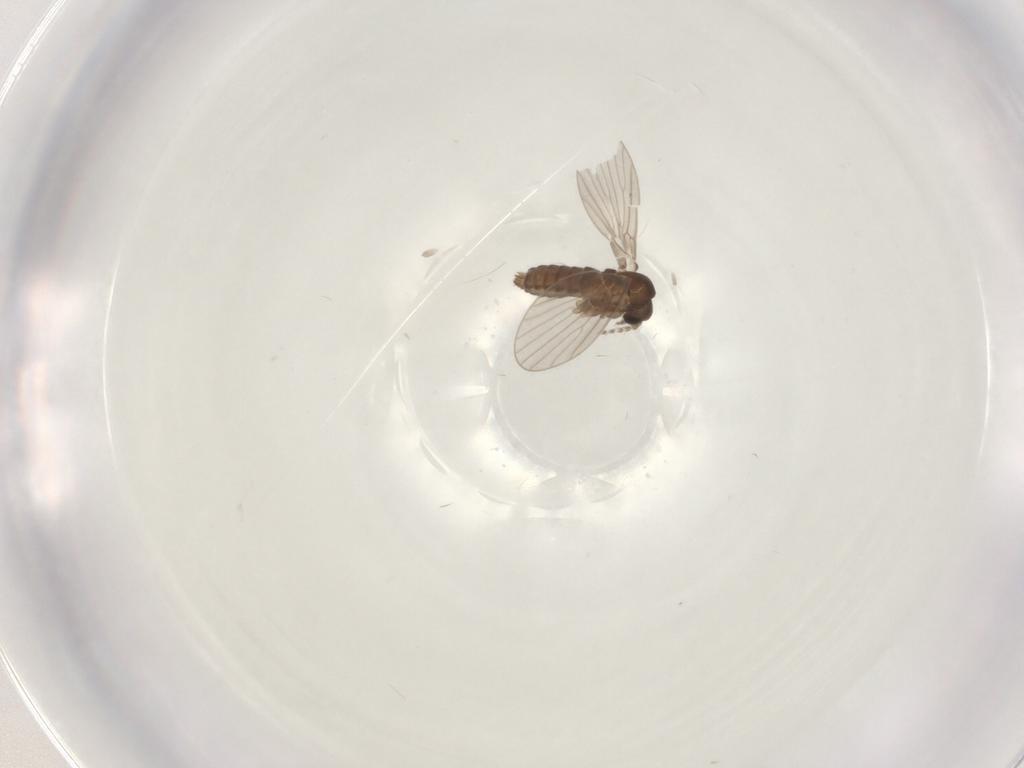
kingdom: Animalia
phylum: Arthropoda
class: Insecta
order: Diptera
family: Psychodidae
